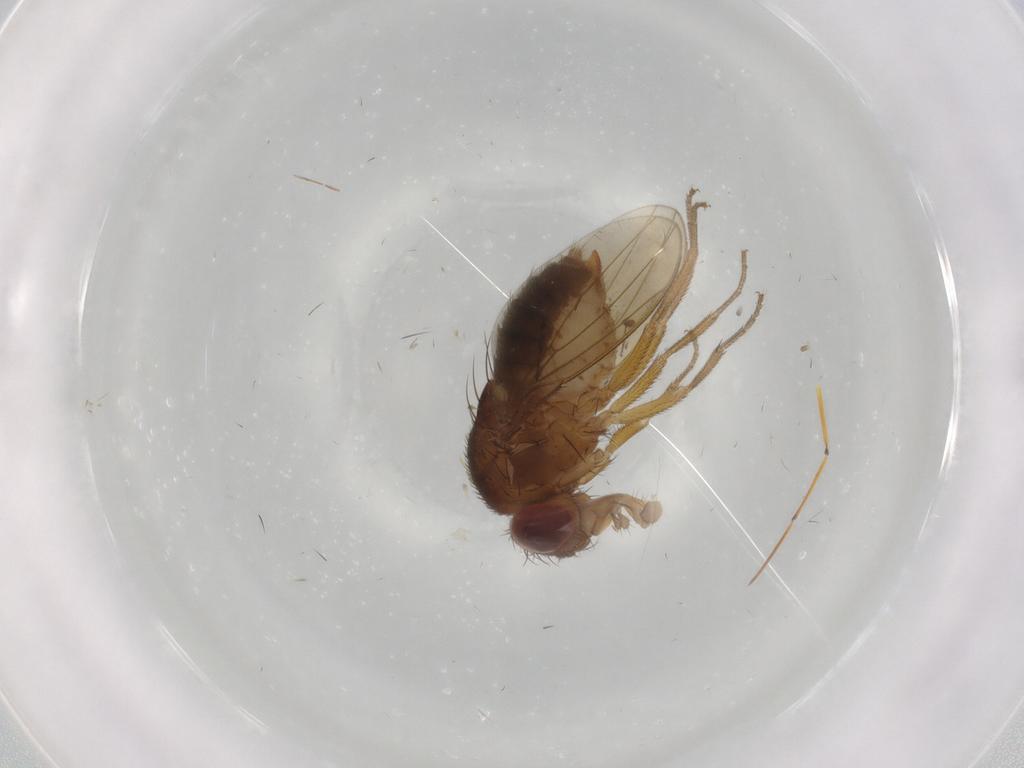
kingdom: Animalia
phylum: Arthropoda
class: Insecta
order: Diptera
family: Drosophilidae
